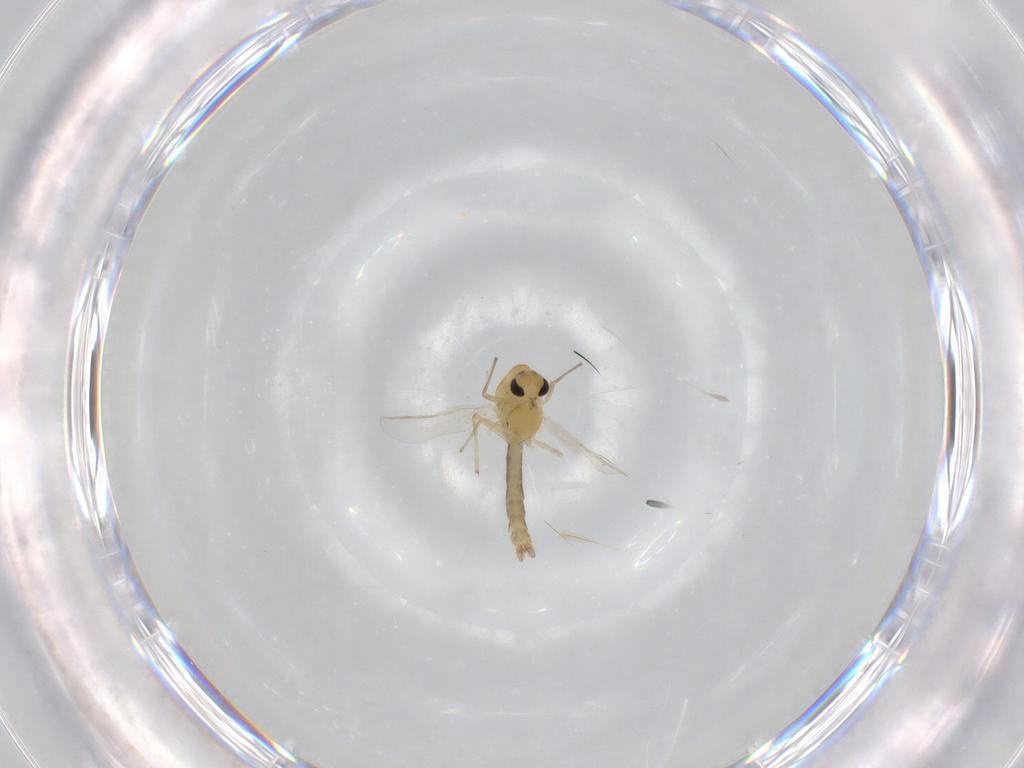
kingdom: Animalia
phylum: Arthropoda
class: Insecta
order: Diptera
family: Chironomidae
